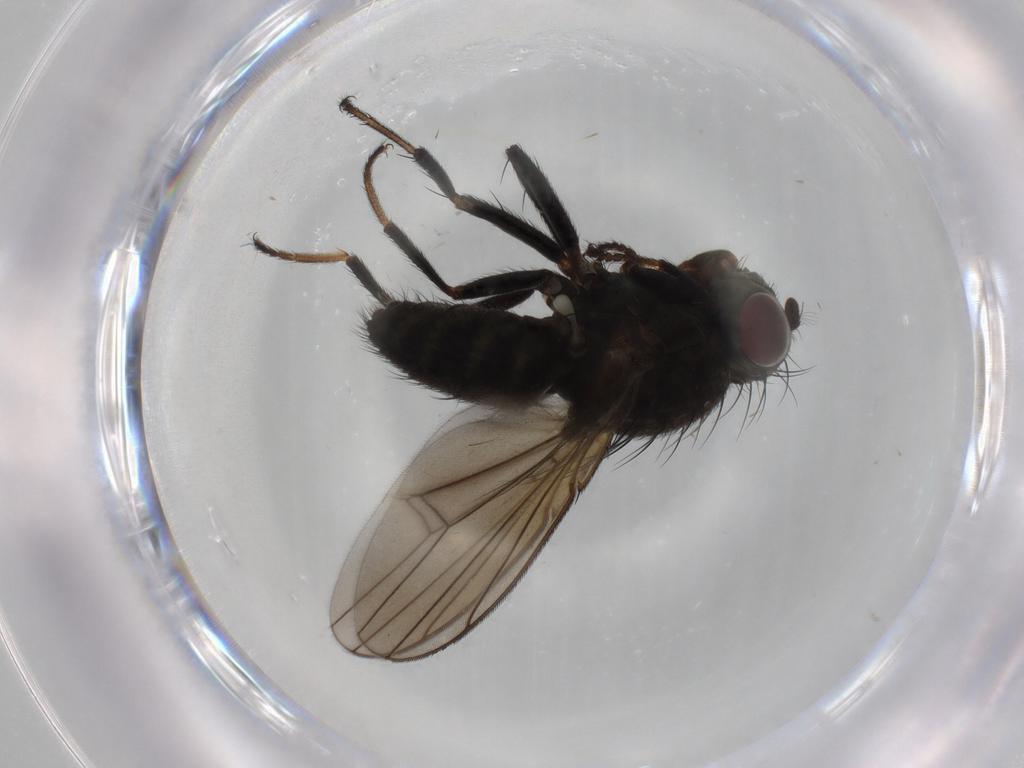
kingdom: Animalia
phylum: Arthropoda
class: Insecta
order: Diptera
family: Ephydridae
